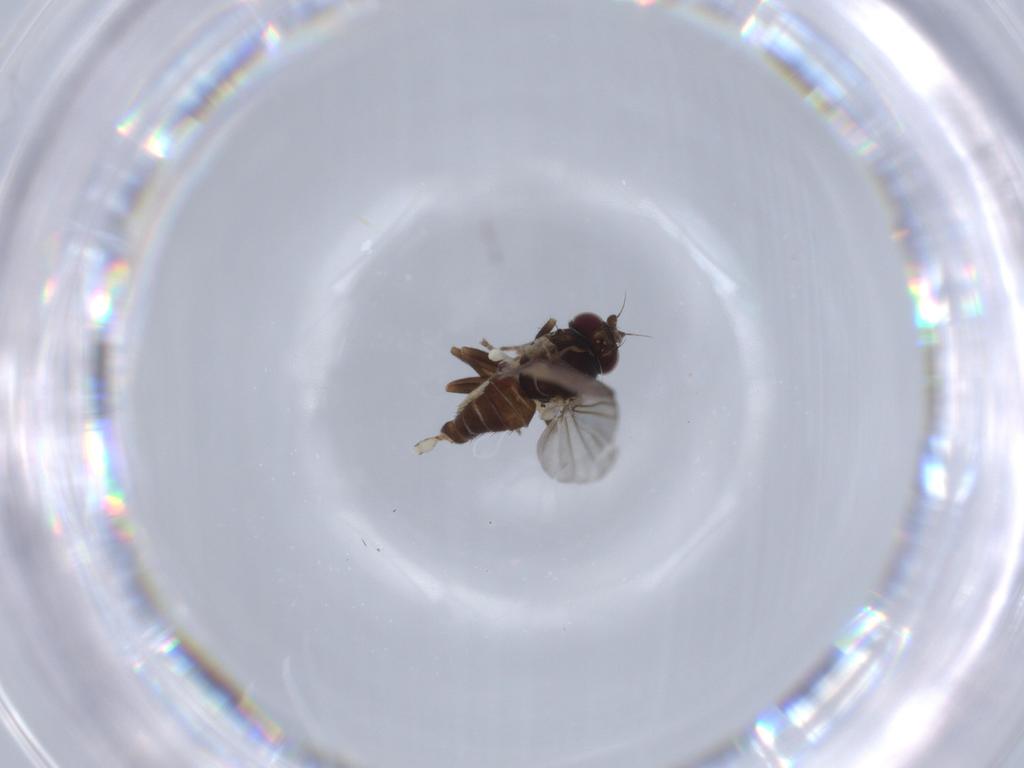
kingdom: Animalia
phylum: Arthropoda
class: Insecta
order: Diptera
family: Agromyzidae
